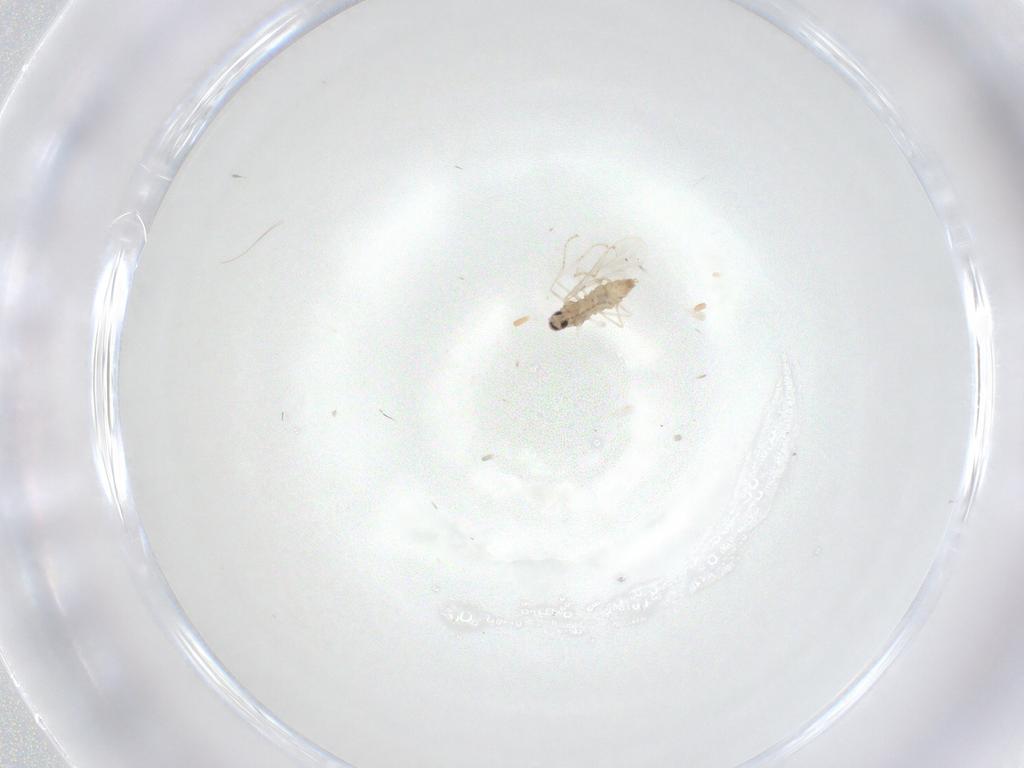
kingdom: Animalia
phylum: Arthropoda
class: Insecta
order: Diptera
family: Cecidomyiidae
